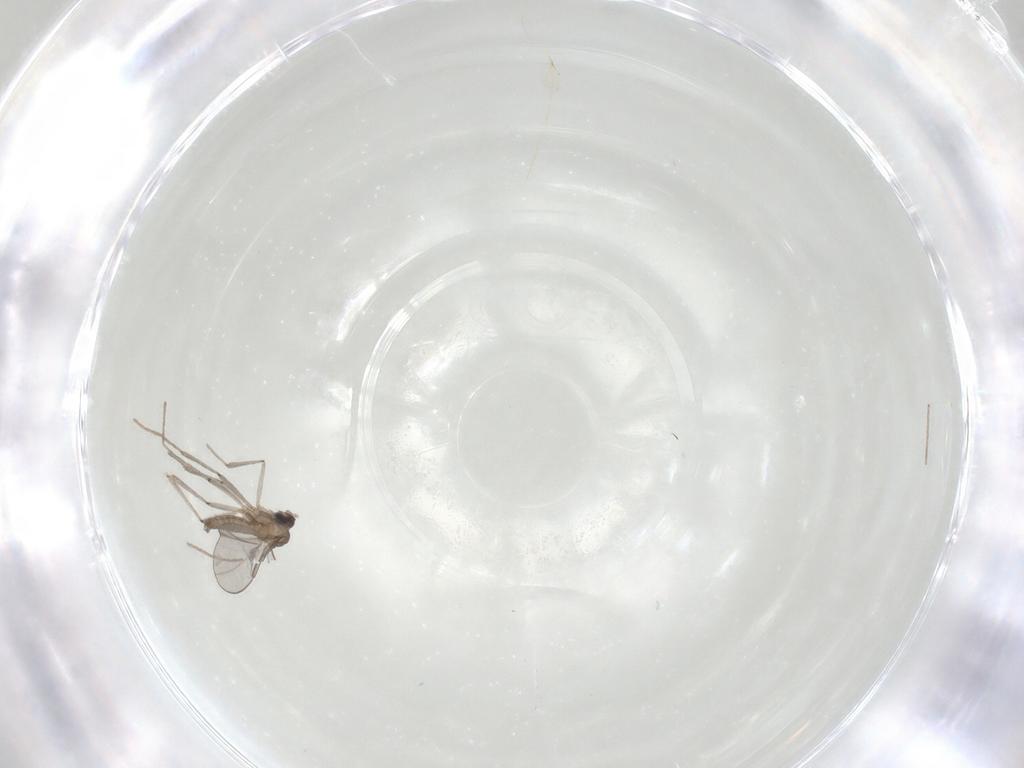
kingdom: Animalia
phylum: Arthropoda
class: Insecta
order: Diptera
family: Cecidomyiidae
